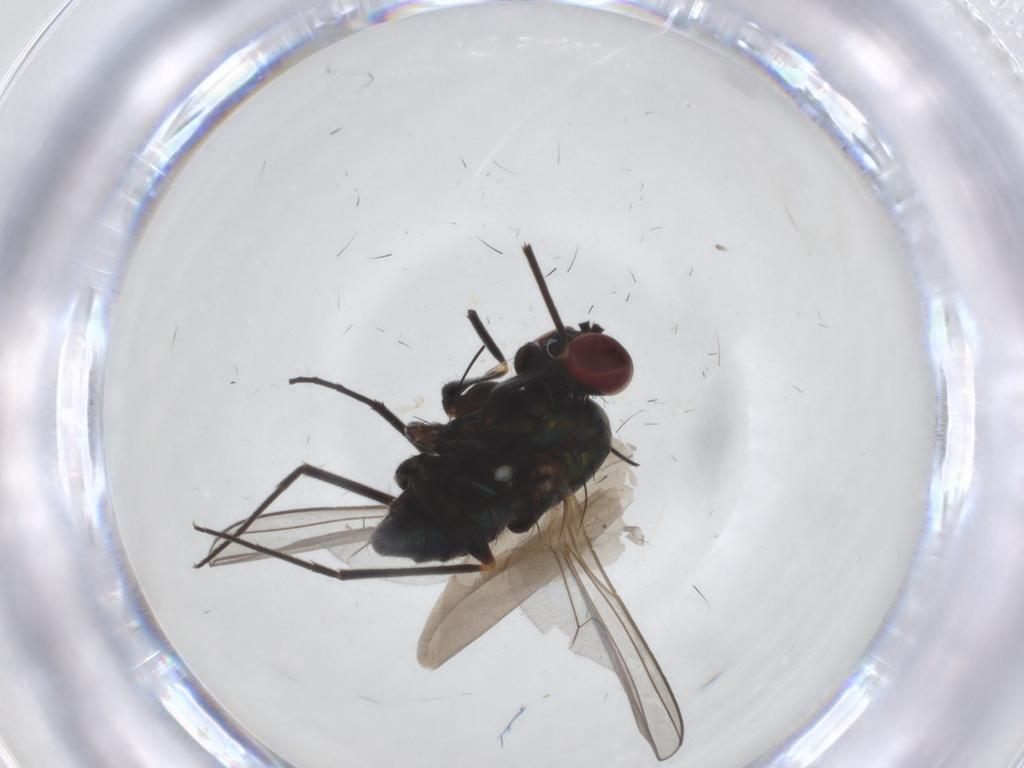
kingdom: Animalia
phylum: Arthropoda
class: Insecta
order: Diptera
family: Dolichopodidae
